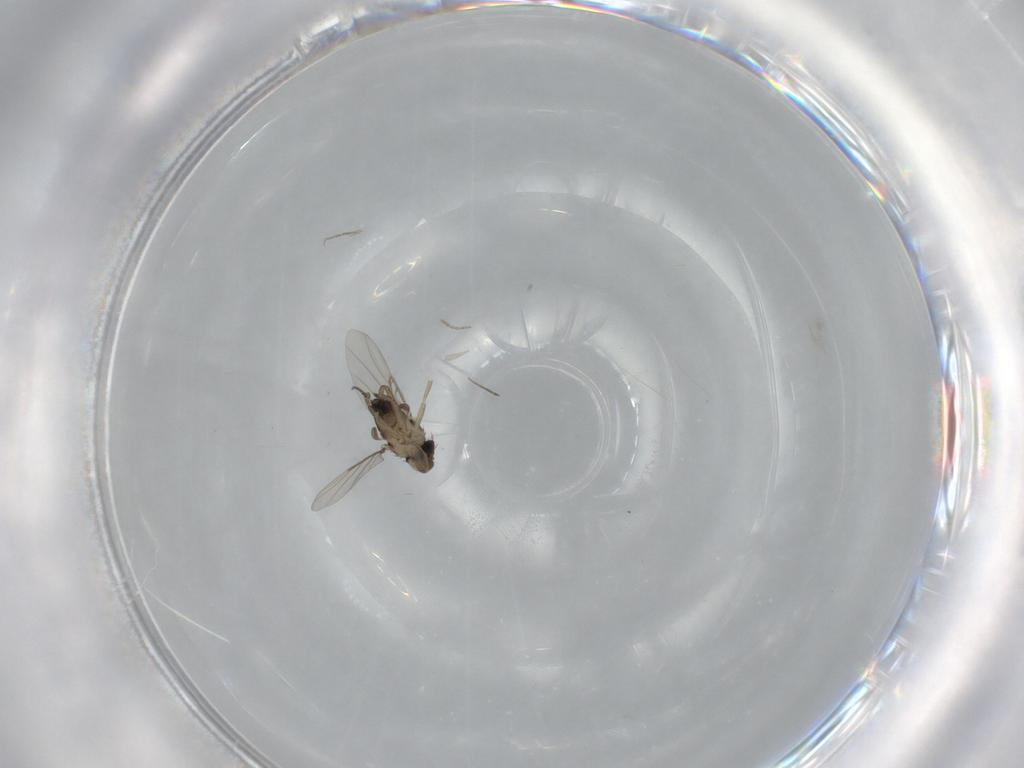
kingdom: Animalia
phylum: Arthropoda
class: Insecta
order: Diptera
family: Phoridae
